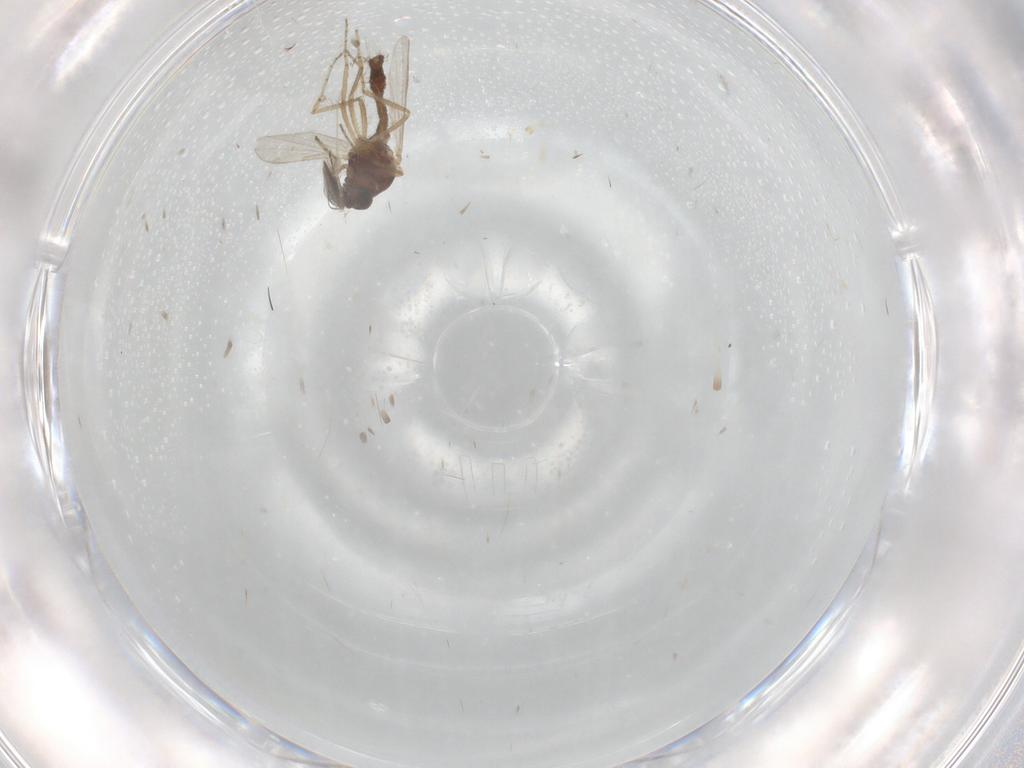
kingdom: Animalia
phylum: Arthropoda
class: Insecta
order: Diptera
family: Ceratopogonidae
